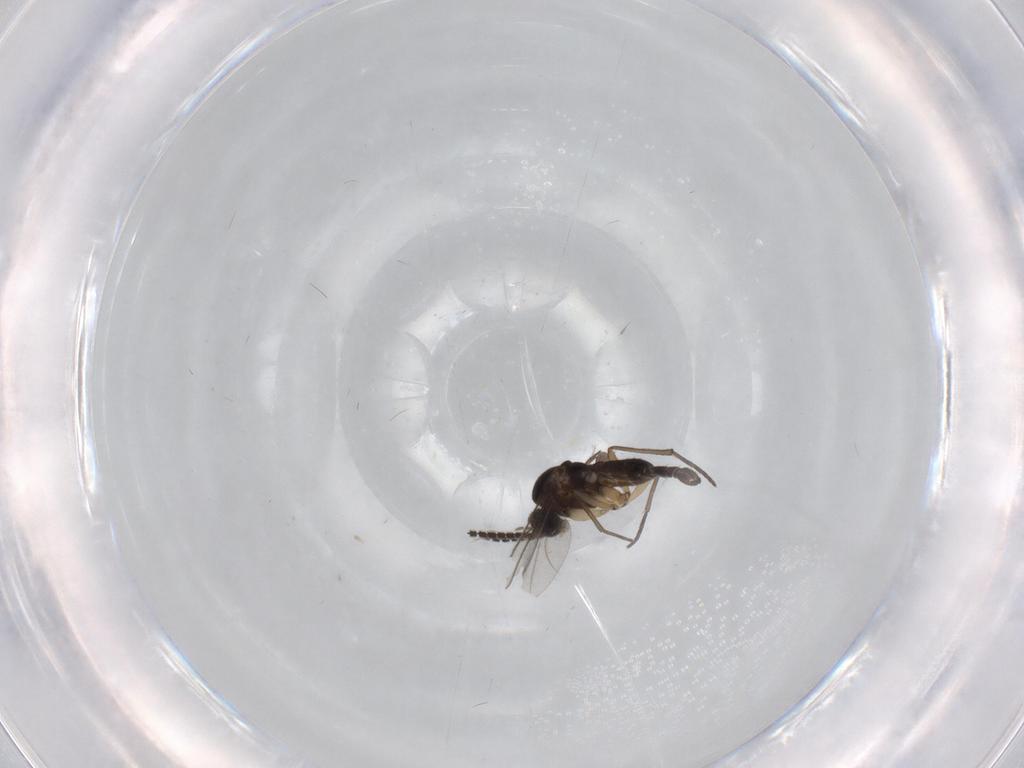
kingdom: Animalia
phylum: Arthropoda
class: Insecta
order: Diptera
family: Sciaridae
